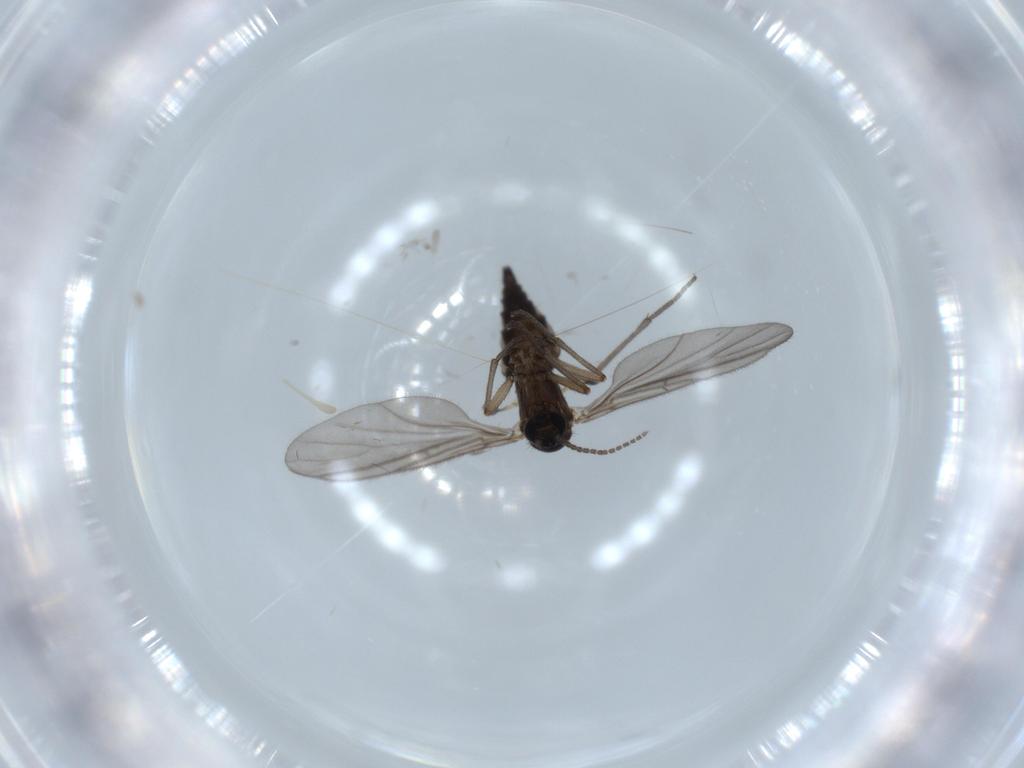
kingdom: Animalia
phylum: Arthropoda
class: Insecta
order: Diptera
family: Sciaridae
